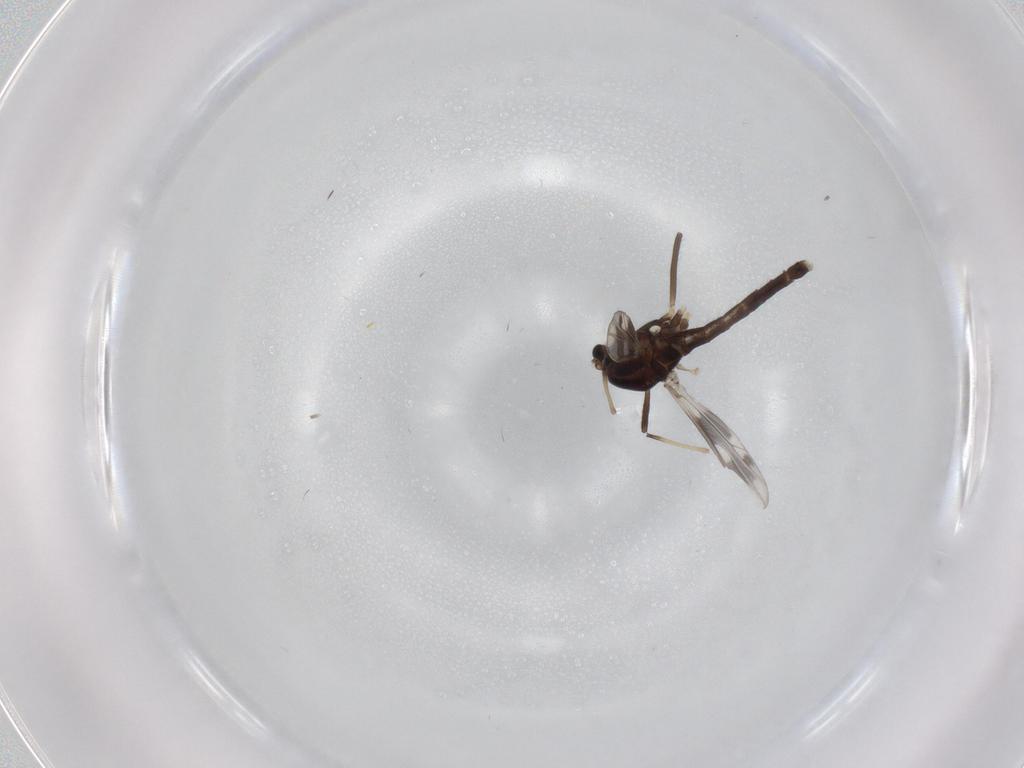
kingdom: Animalia
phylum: Arthropoda
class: Insecta
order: Diptera
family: Chironomidae
